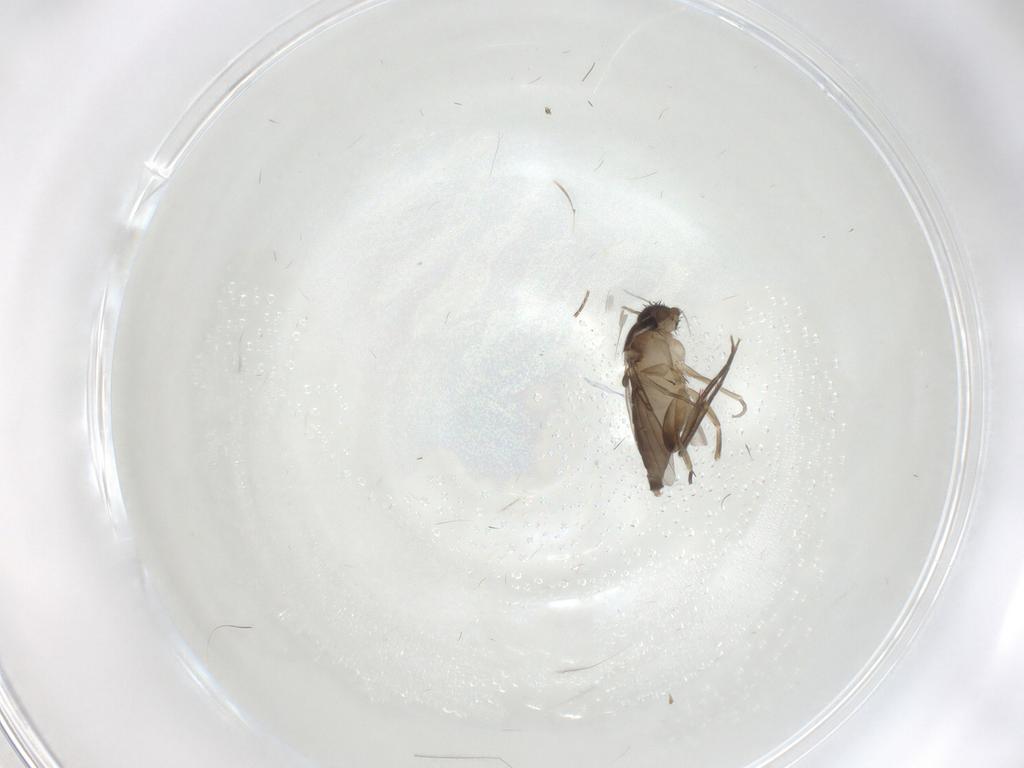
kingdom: Animalia
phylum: Arthropoda
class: Insecta
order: Diptera
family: Phoridae
